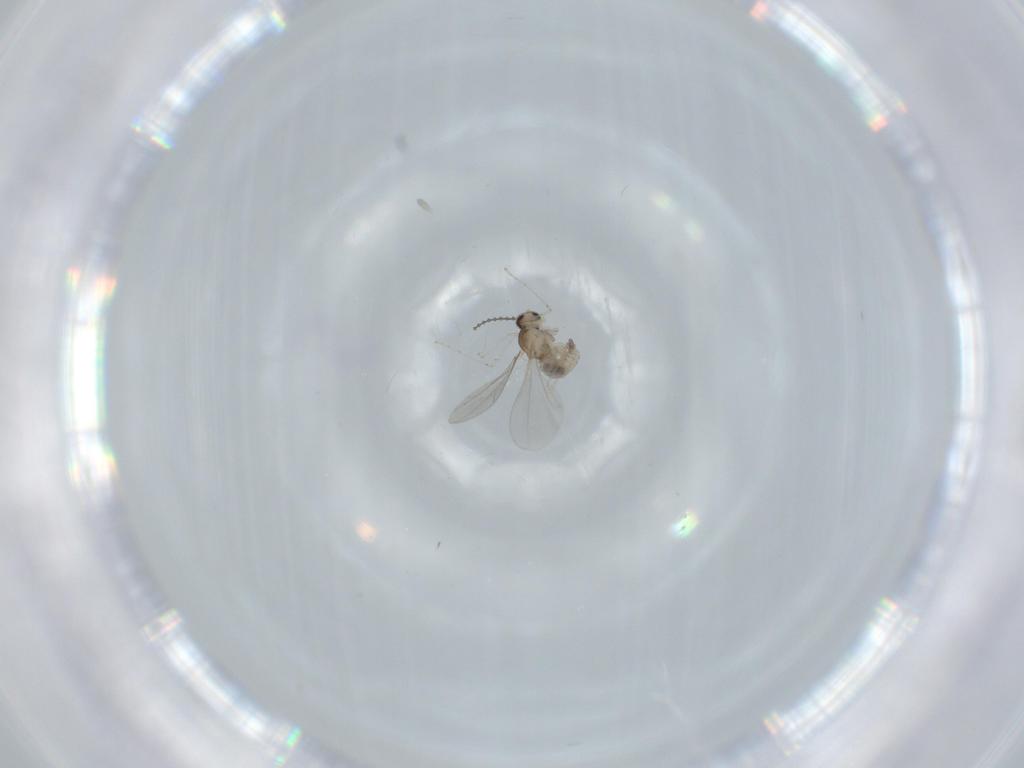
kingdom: Animalia
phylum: Arthropoda
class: Insecta
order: Diptera
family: Cecidomyiidae
